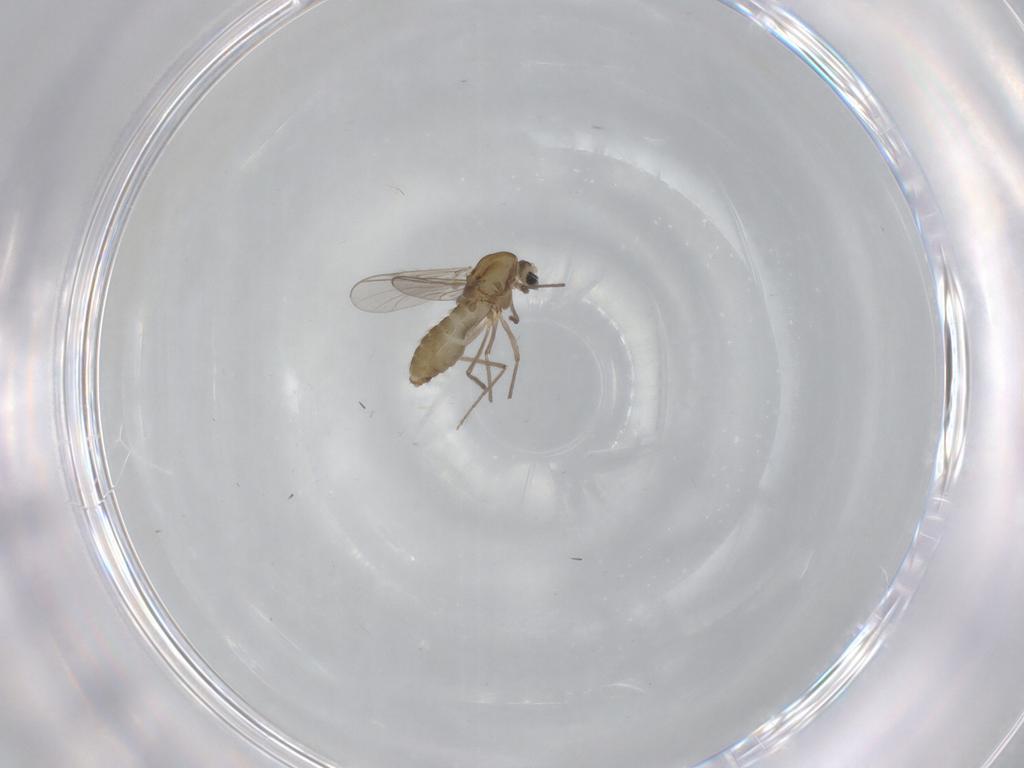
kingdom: Animalia
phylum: Arthropoda
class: Insecta
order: Diptera
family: Chironomidae
